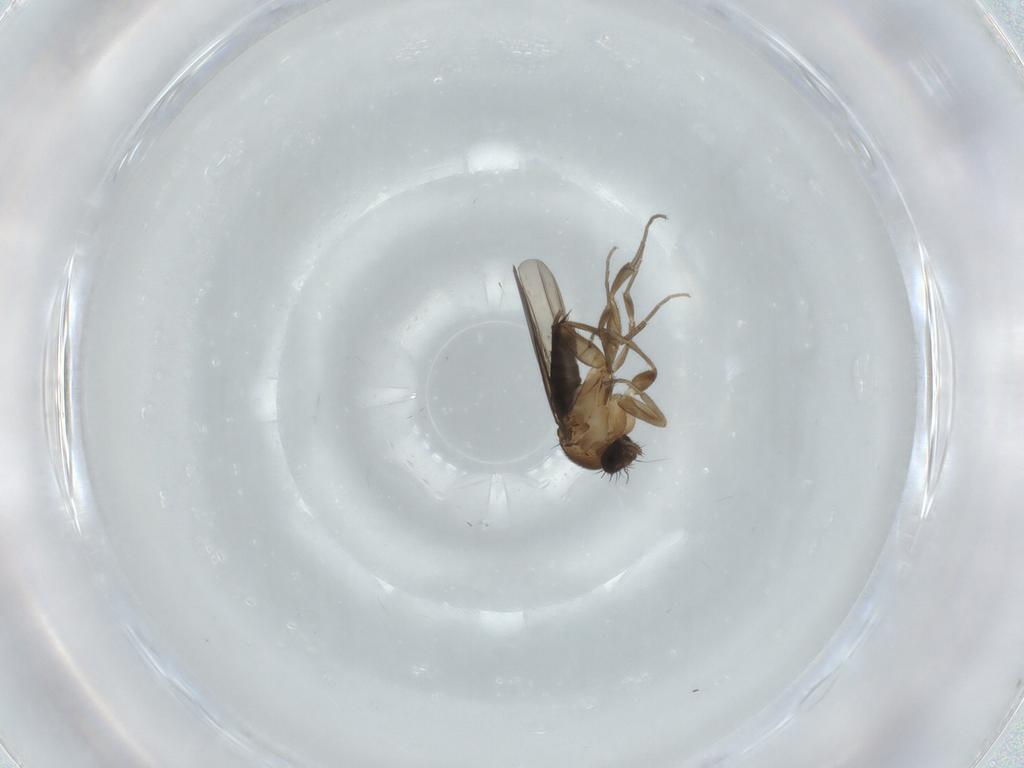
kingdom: Animalia
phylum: Arthropoda
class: Insecta
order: Diptera
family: Phoridae
